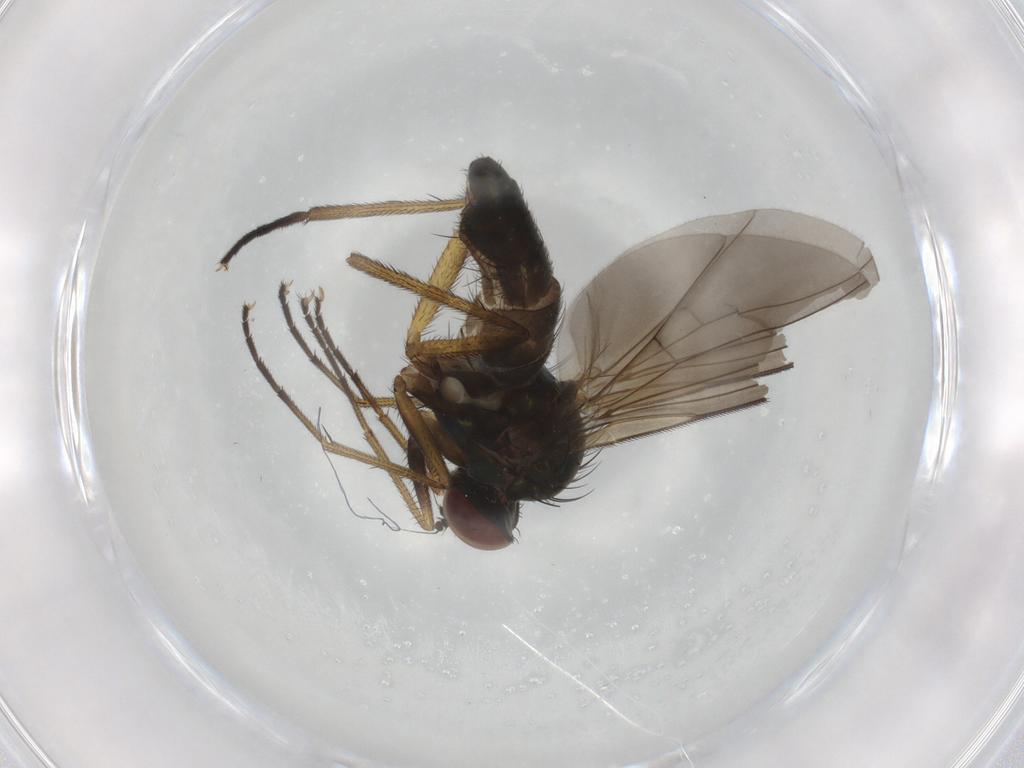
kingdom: Animalia
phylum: Arthropoda
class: Insecta
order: Diptera
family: Dolichopodidae
